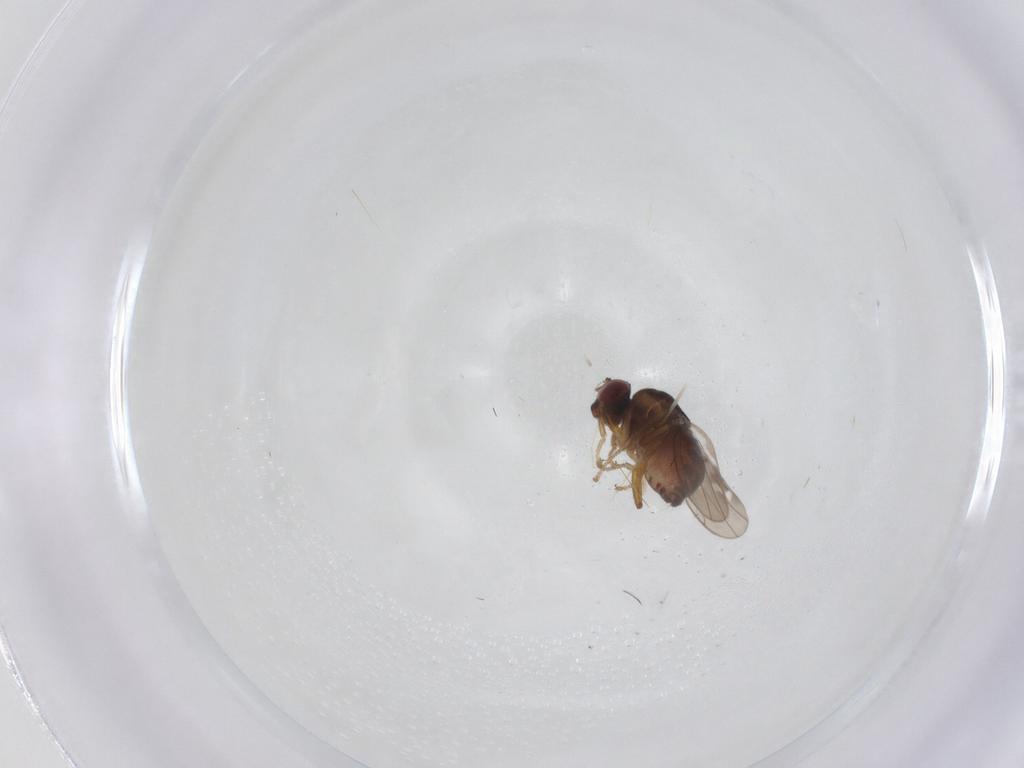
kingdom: Animalia
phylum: Arthropoda
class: Insecta
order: Diptera
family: Ephydridae
